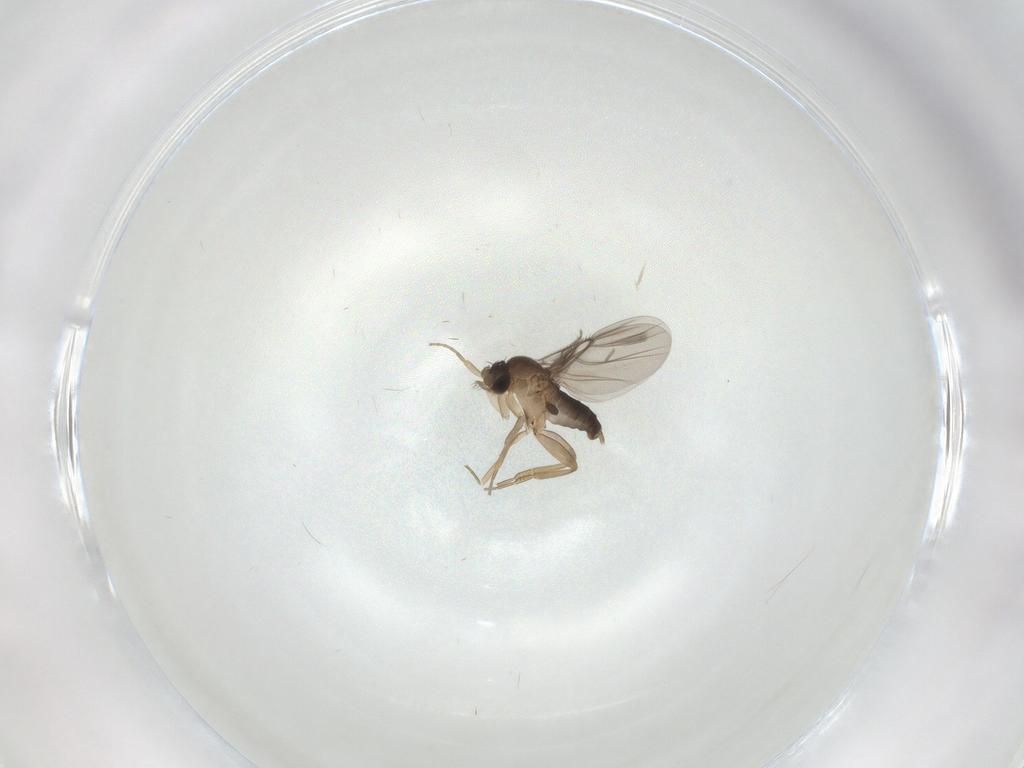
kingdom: Animalia
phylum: Arthropoda
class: Insecta
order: Diptera
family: Phoridae
